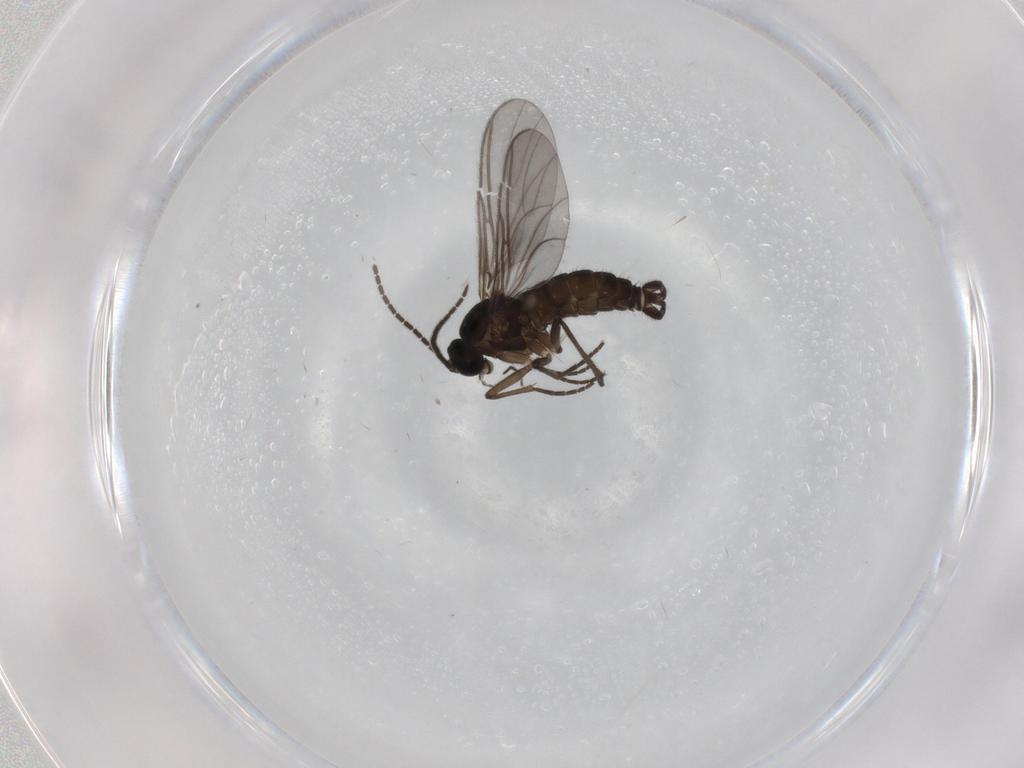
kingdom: Animalia
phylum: Arthropoda
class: Insecta
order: Diptera
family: Sciaridae
